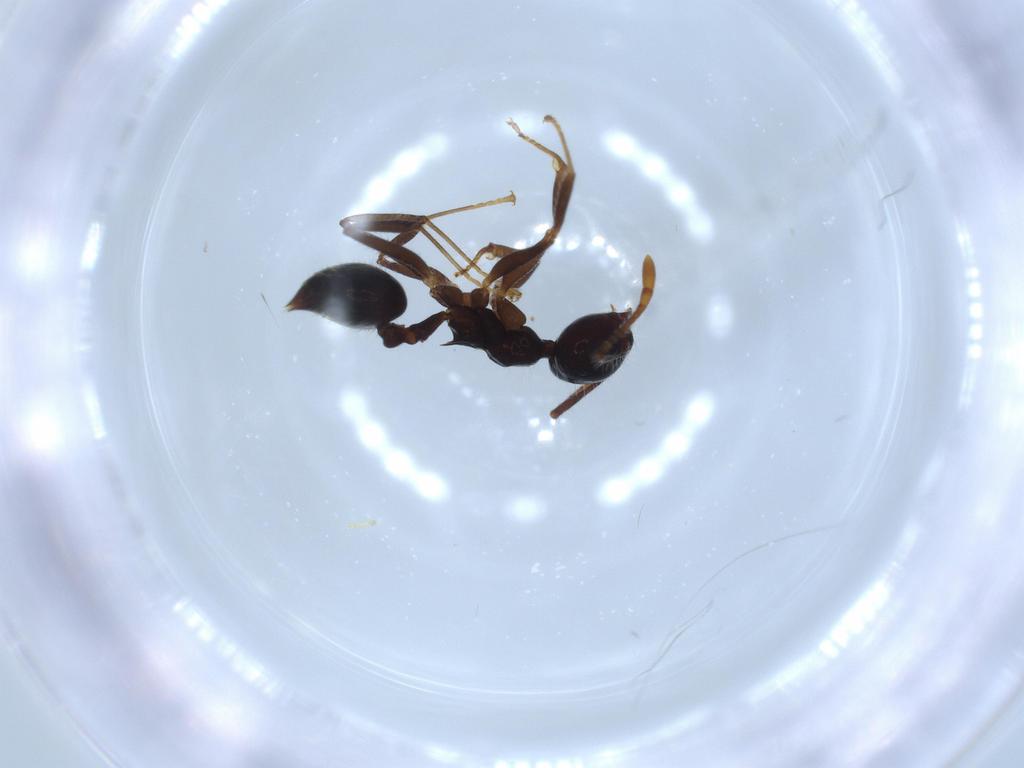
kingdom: Animalia
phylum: Arthropoda
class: Insecta
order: Hymenoptera
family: Formicidae
